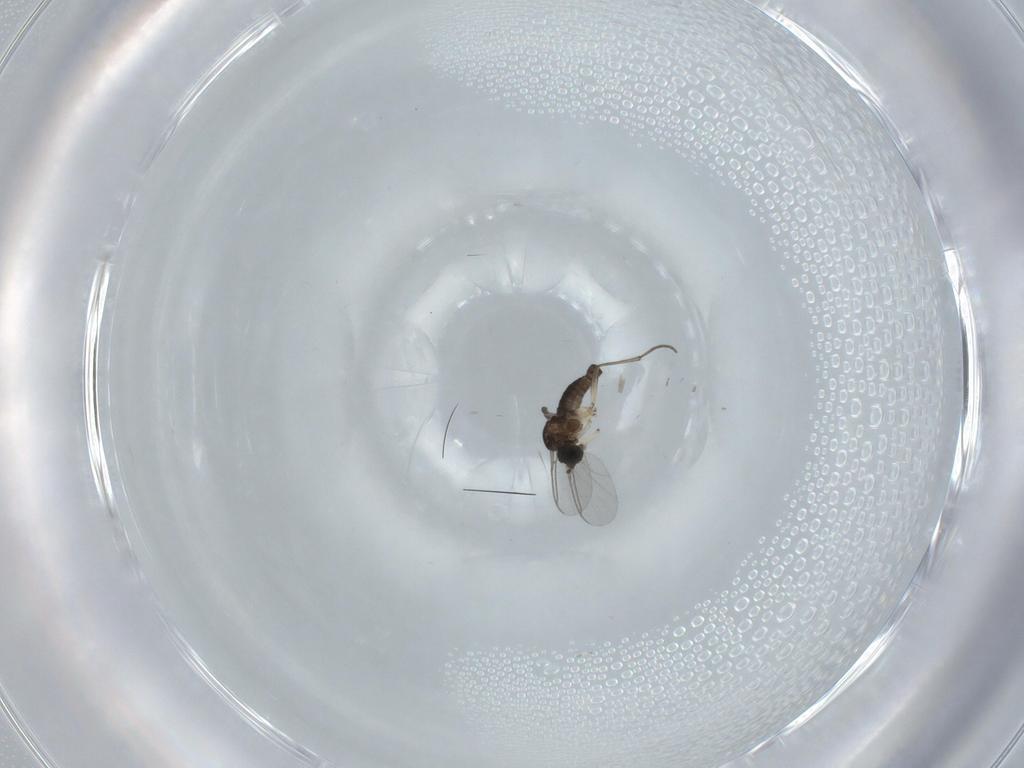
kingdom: Animalia
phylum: Arthropoda
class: Insecta
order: Diptera
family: Sciaridae
